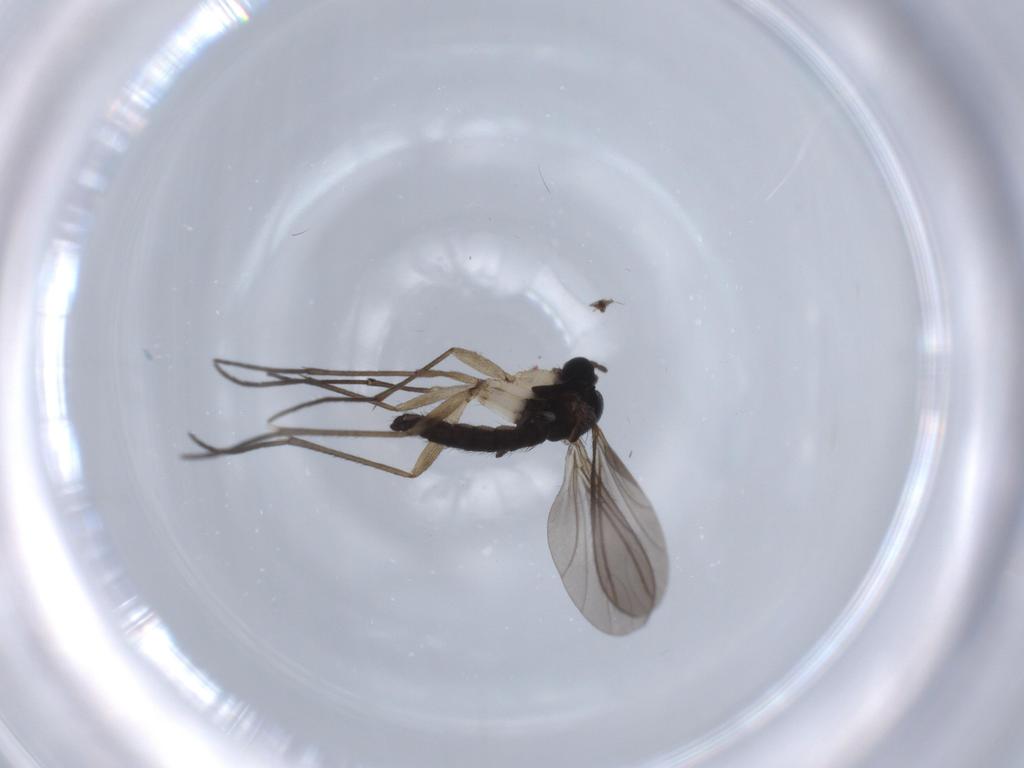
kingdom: Animalia
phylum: Arthropoda
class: Insecta
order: Diptera
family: Sciaridae
